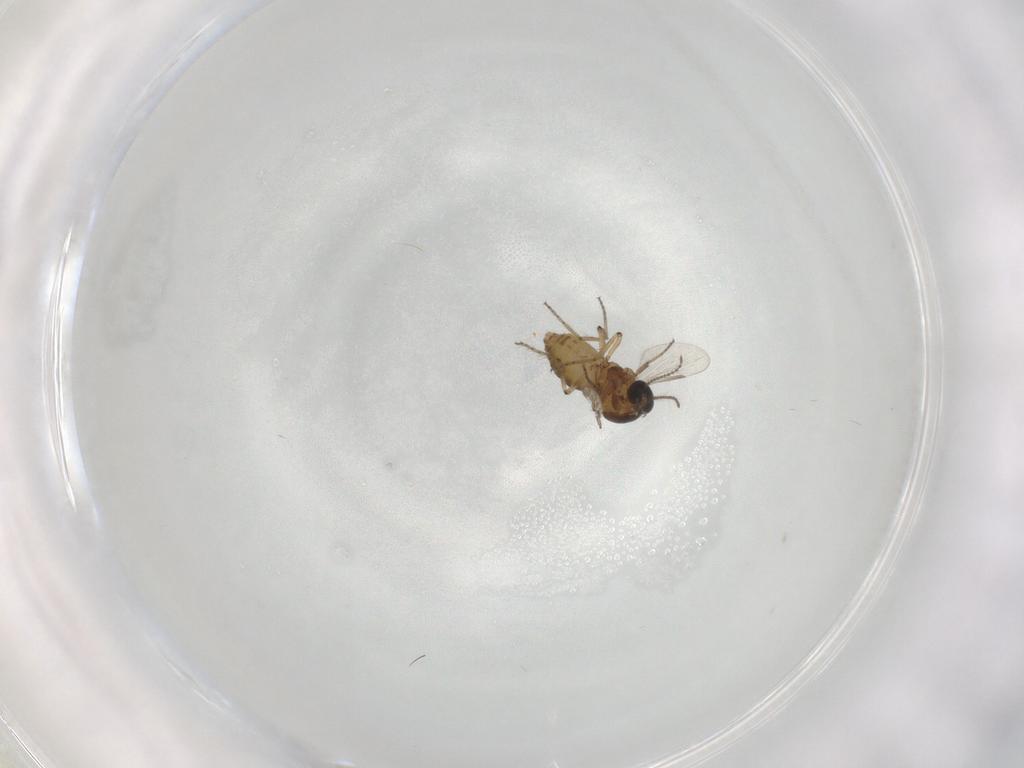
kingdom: Animalia
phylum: Arthropoda
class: Insecta
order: Diptera
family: Ceratopogonidae
